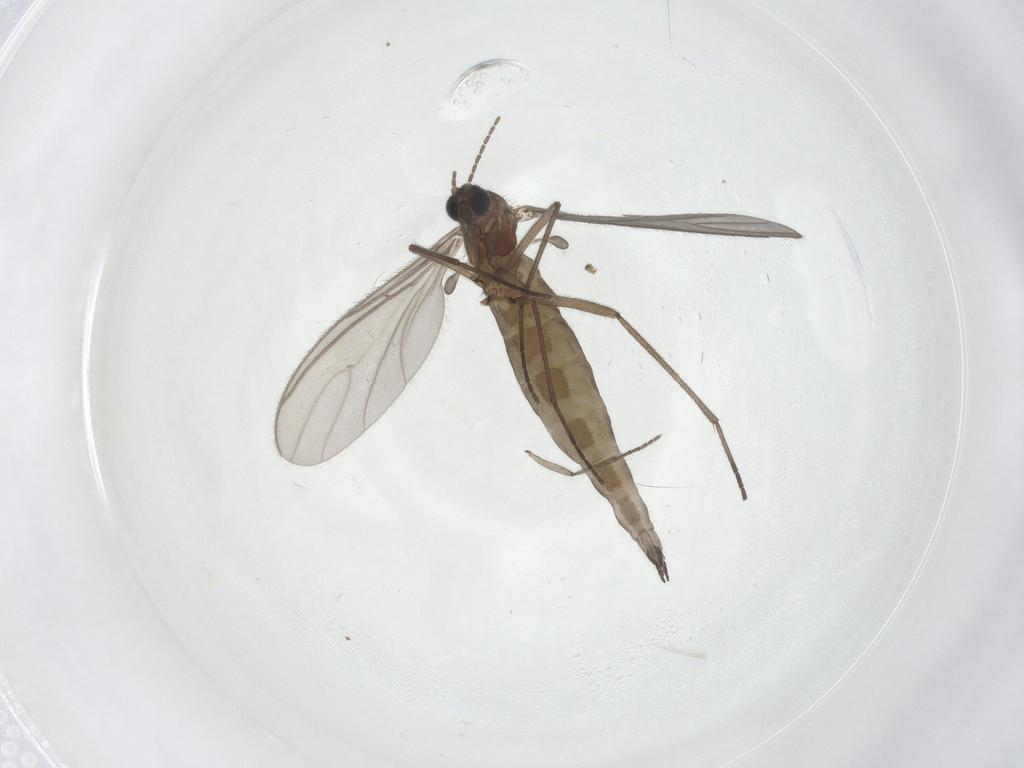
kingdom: Animalia
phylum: Arthropoda
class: Insecta
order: Diptera
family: Sciaridae
